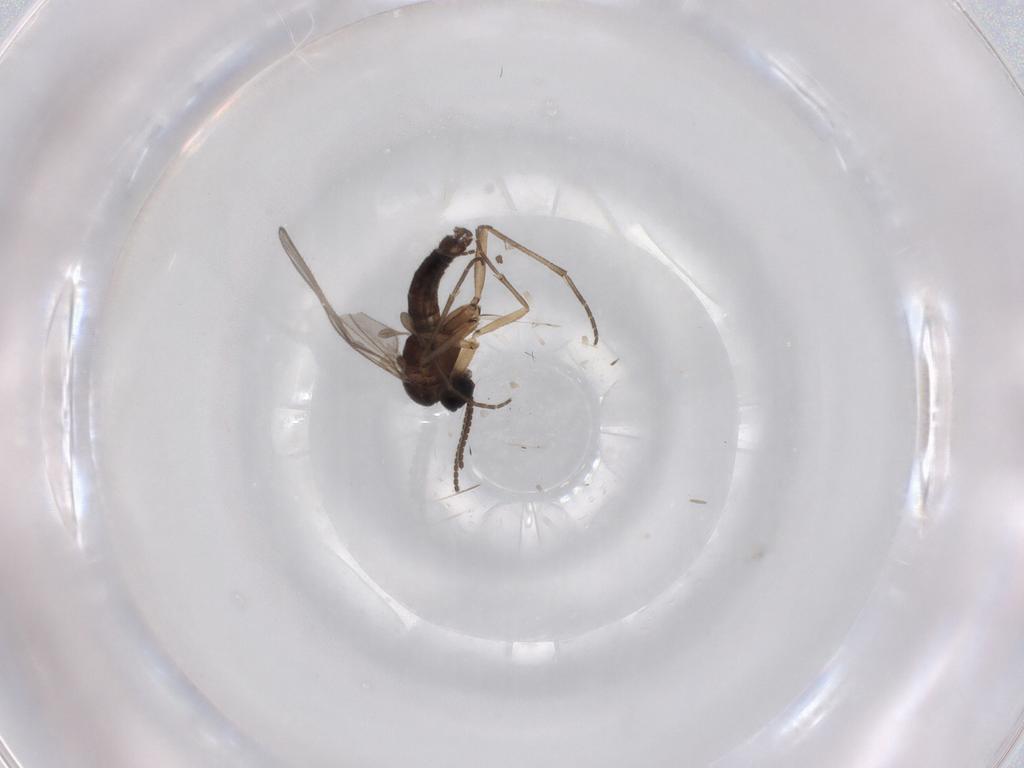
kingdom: Animalia
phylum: Arthropoda
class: Insecta
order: Diptera
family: Sciaridae
